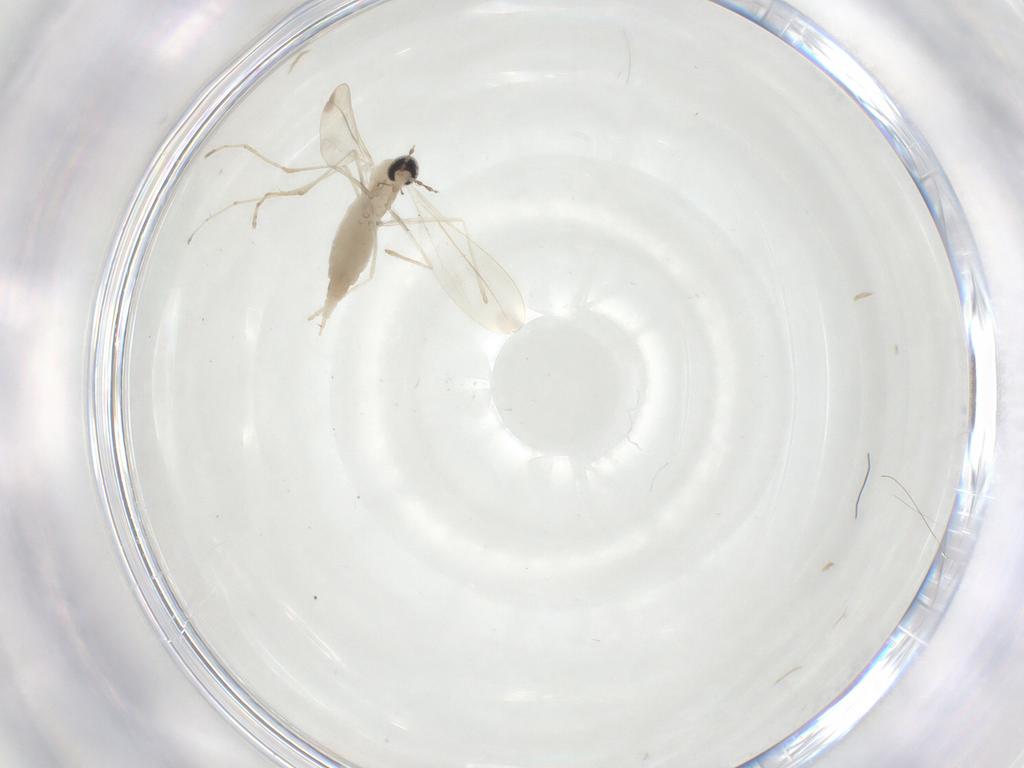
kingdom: Animalia
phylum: Arthropoda
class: Insecta
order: Diptera
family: Cecidomyiidae
